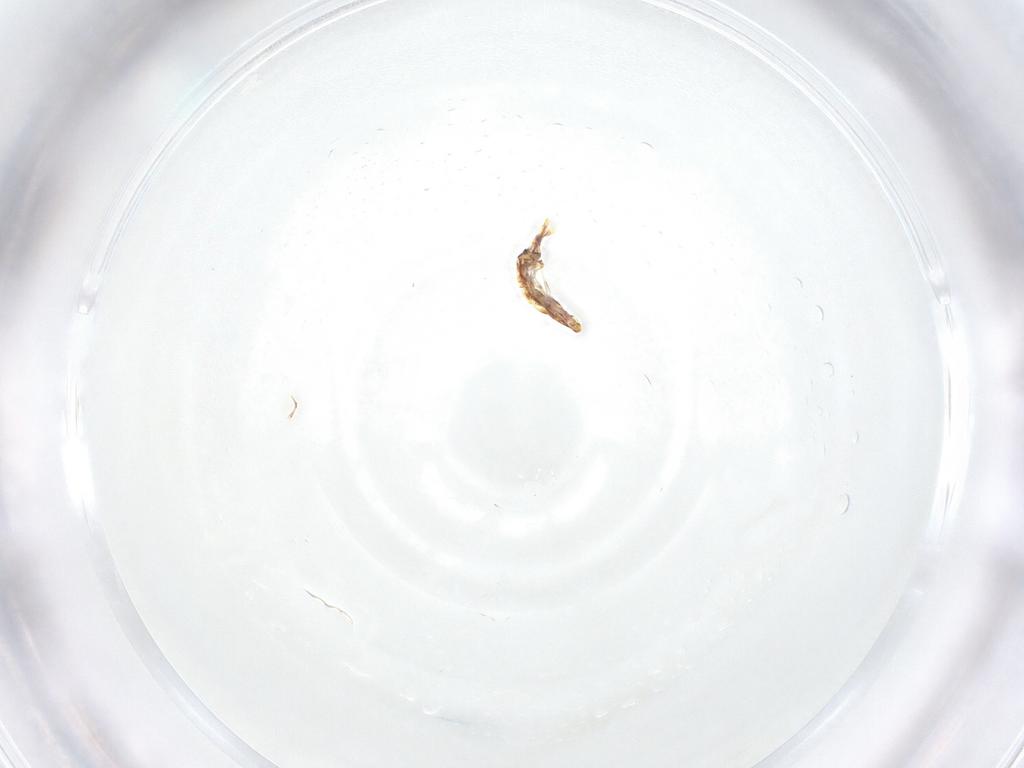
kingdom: Animalia
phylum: Arthropoda
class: Collembola
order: Entomobryomorpha
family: Entomobryidae
